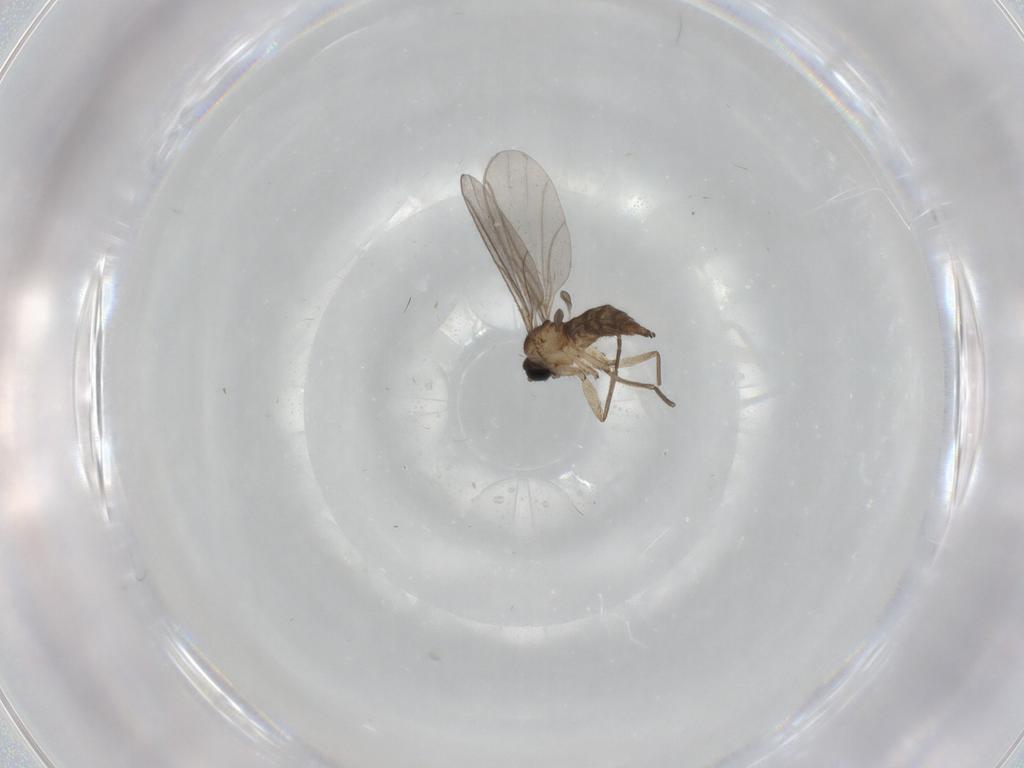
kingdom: Animalia
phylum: Arthropoda
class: Insecta
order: Diptera
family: Sciaridae
